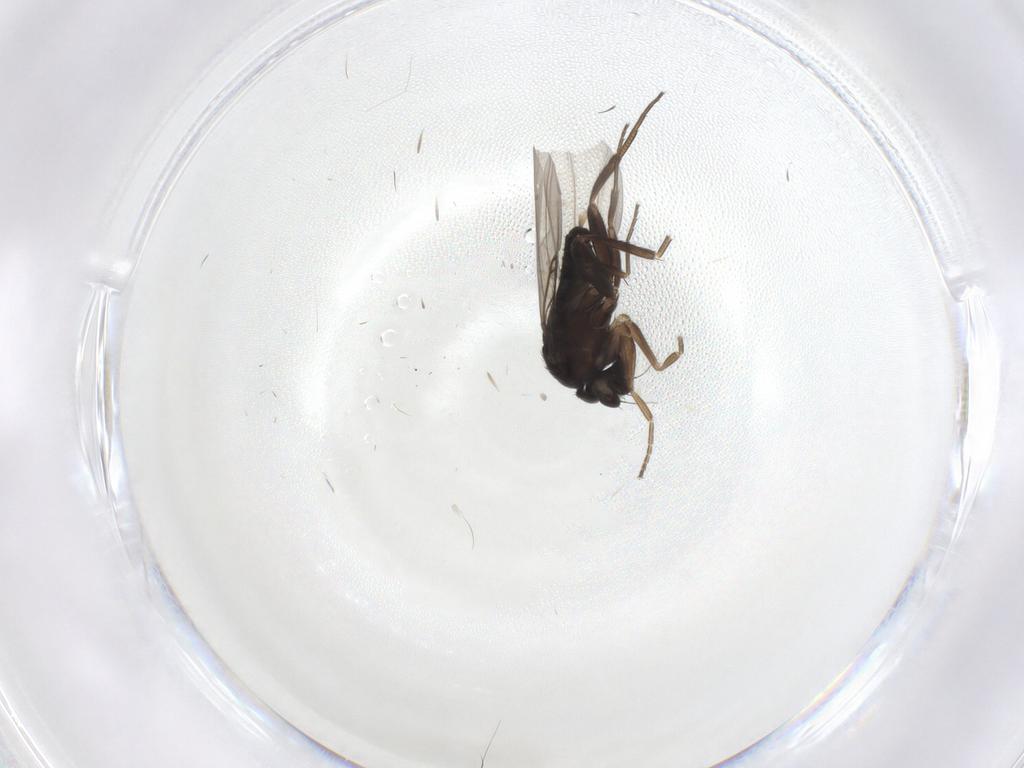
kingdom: Animalia
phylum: Arthropoda
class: Insecta
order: Diptera
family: Phoridae
